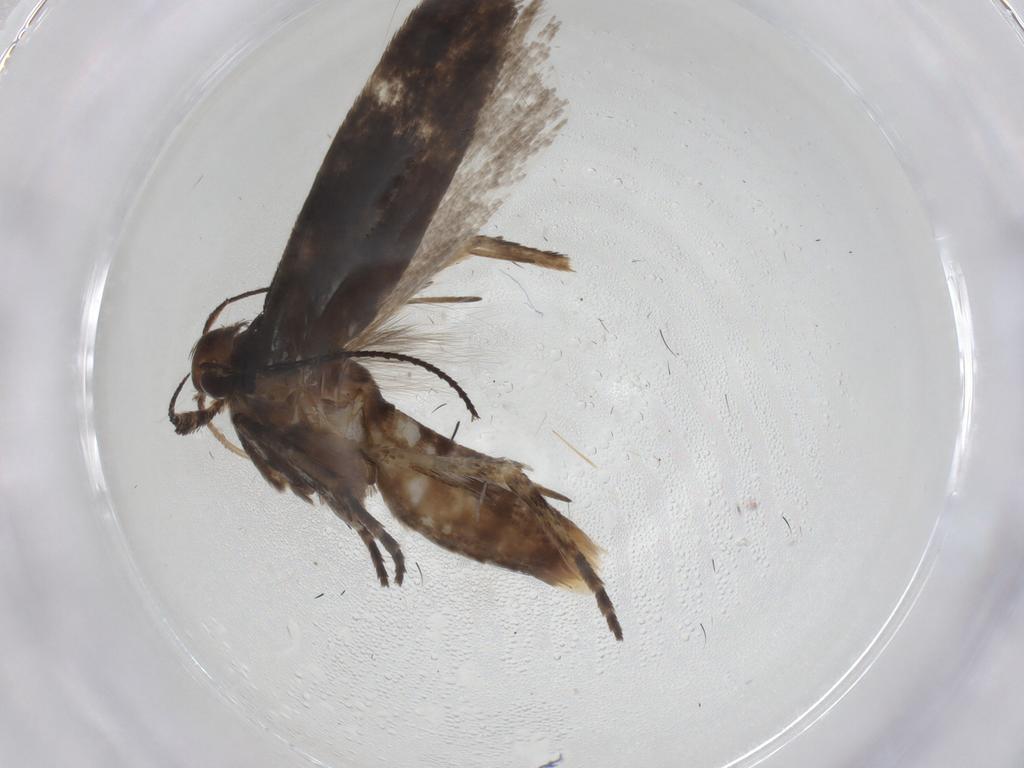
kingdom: Animalia
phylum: Arthropoda
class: Insecta
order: Lepidoptera
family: Gelechiidae
